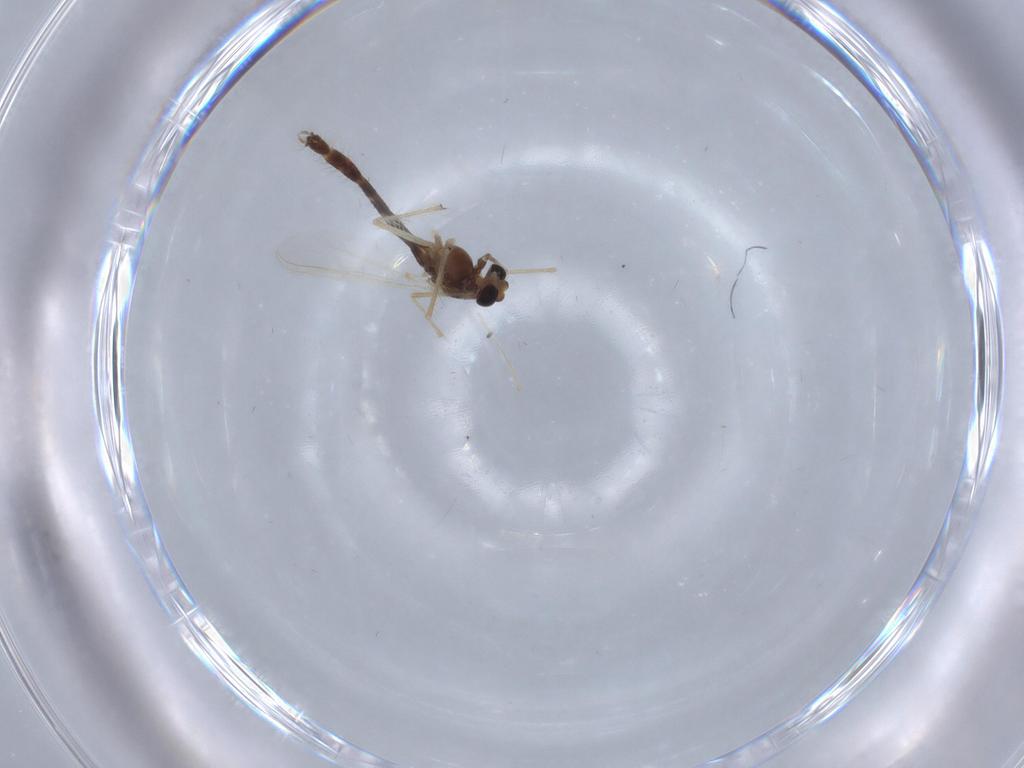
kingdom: Animalia
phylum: Arthropoda
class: Insecta
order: Diptera
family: Chironomidae
